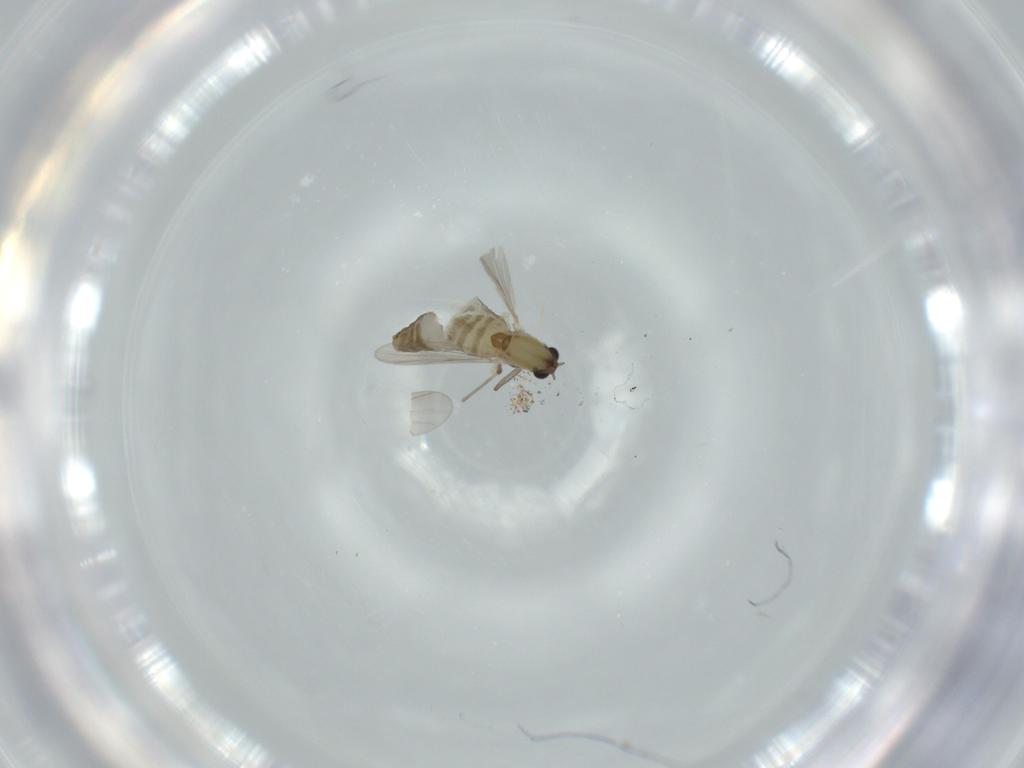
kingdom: Animalia
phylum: Arthropoda
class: Insecta
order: Diptera
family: Chironomidae
